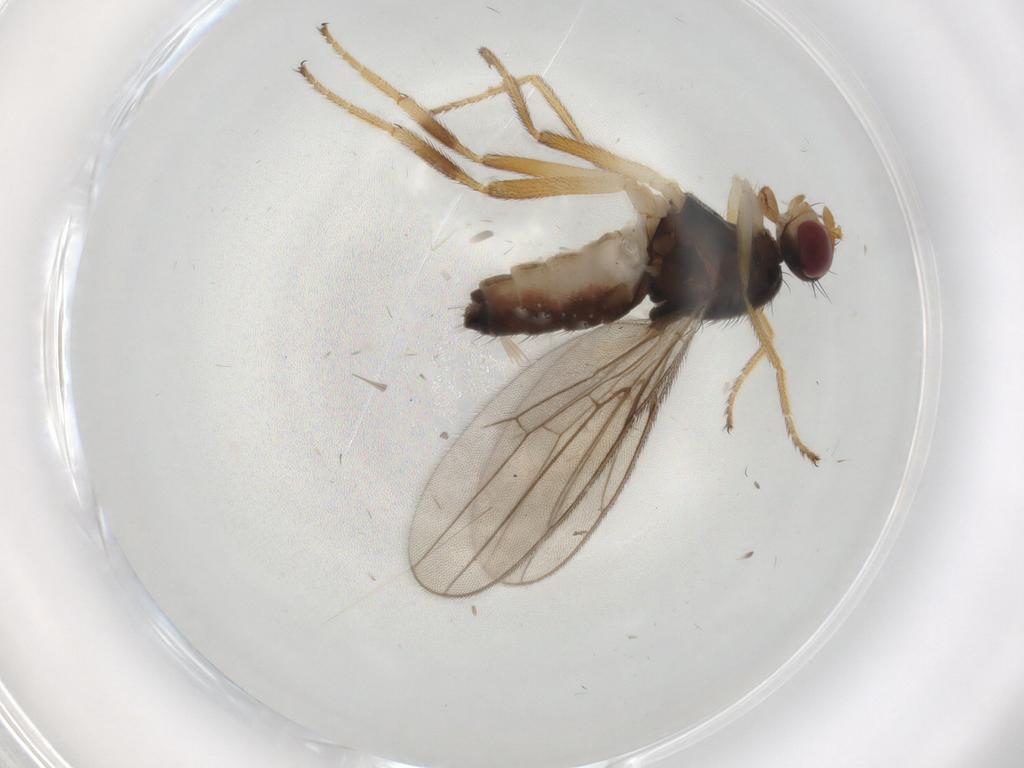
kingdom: Animalia
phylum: Arthropoda
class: Insecta
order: Diptera
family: Chloropidae
